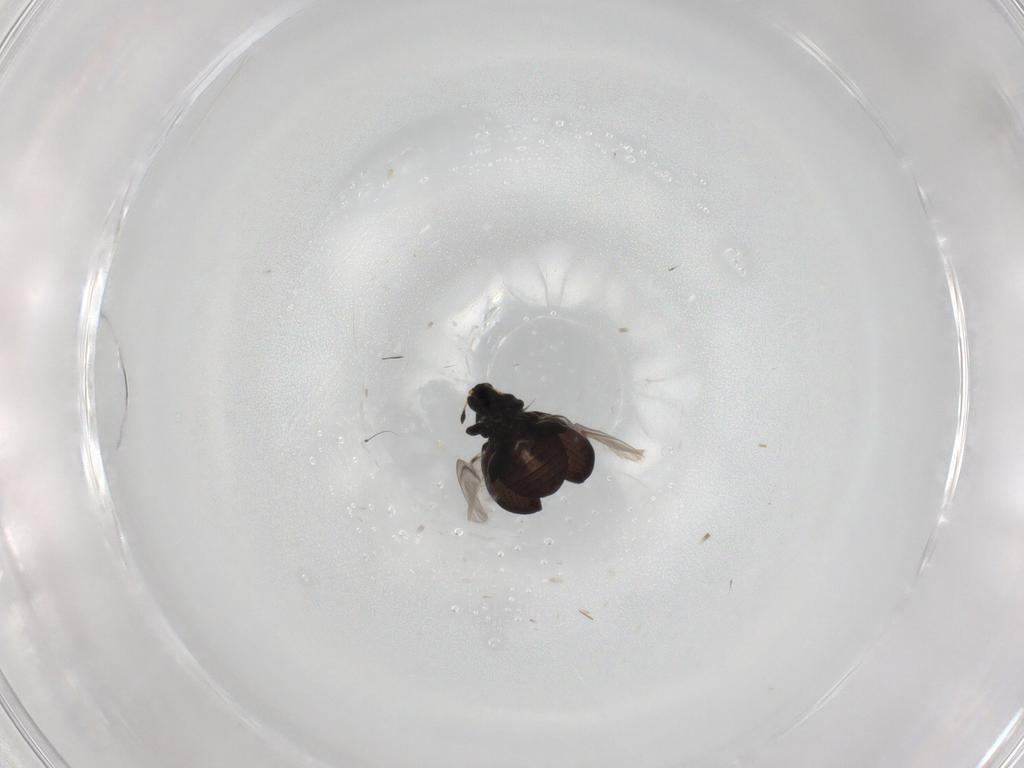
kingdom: Animalia
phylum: Arthropoda
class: Insecta
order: Coleoptera
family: Curculionidae
